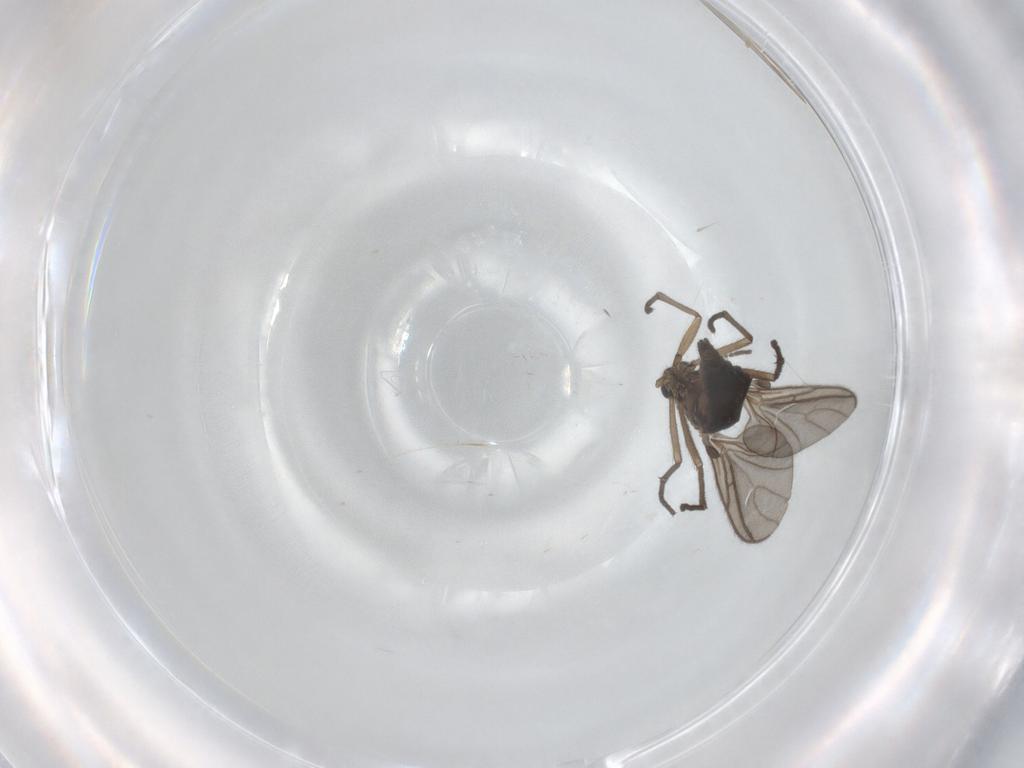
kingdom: Animalia
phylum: Arthropoda
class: Insecta
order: Diptera
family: Sciaridae
